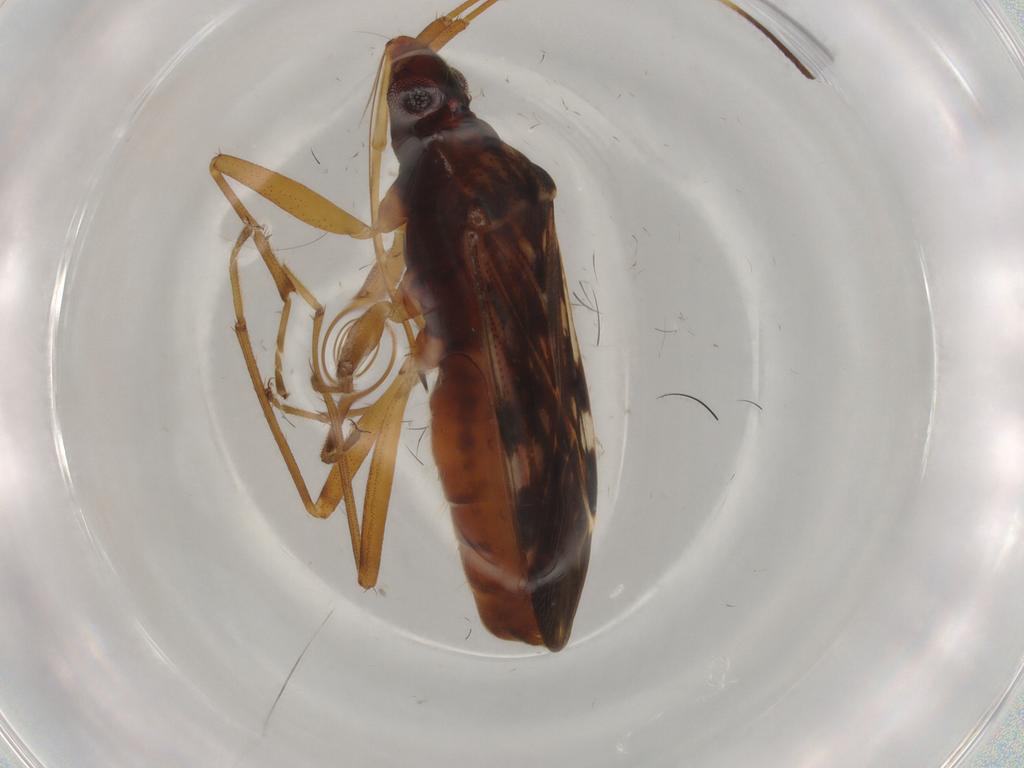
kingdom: Animalia
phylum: Arthropoda
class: Insecta
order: Hemiptera
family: Rhyparochromidae
